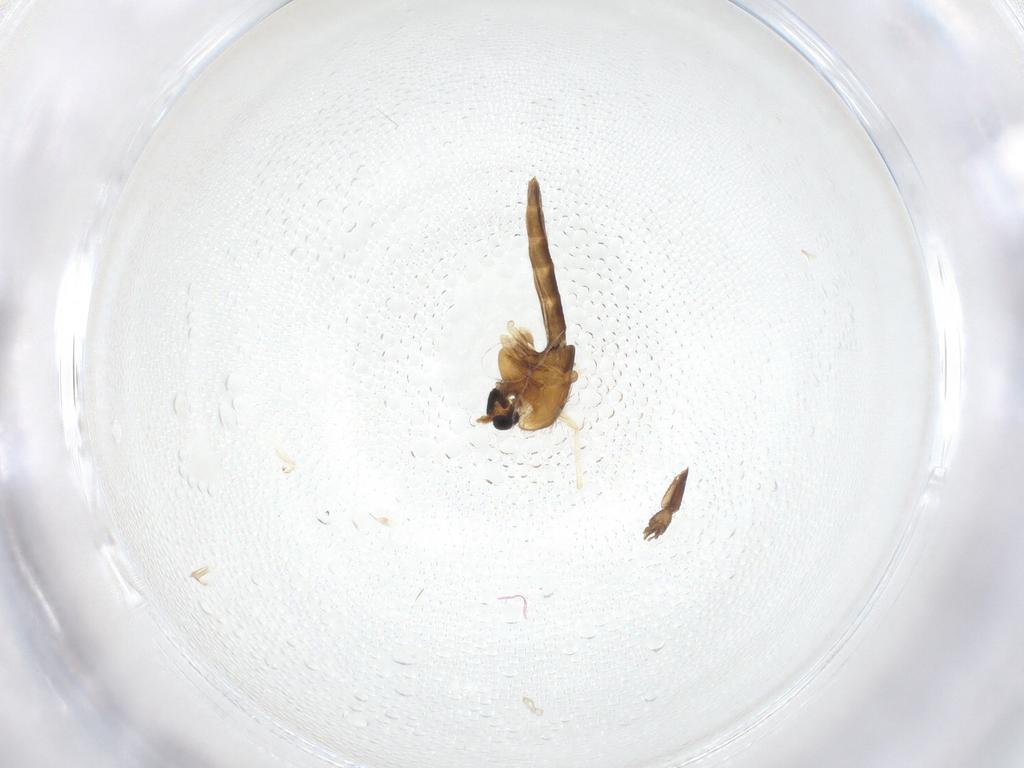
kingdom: Animalia
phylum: Arthropoda
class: Insecta
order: Diptera
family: Chironomidae
